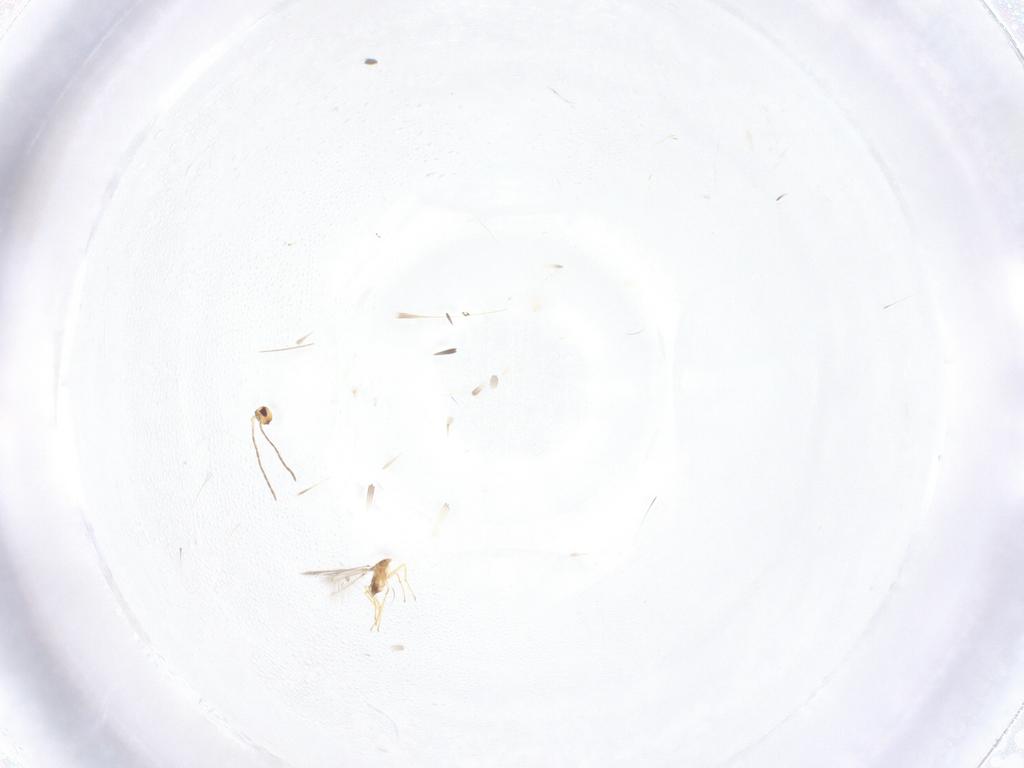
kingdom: Animalia
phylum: Arthropoda
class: Insecta
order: Hymenoptera
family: Mymaridae
